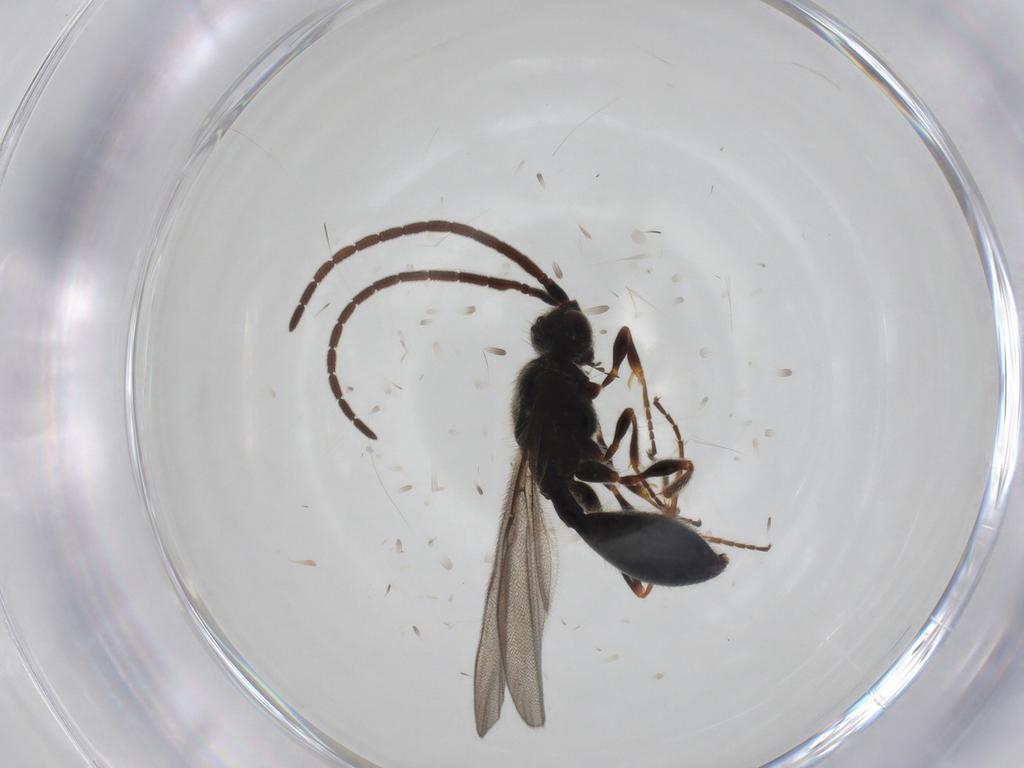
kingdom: Animalia
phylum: Arthropoda
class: Insecta
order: Hymenoptera
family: Diapriidae
